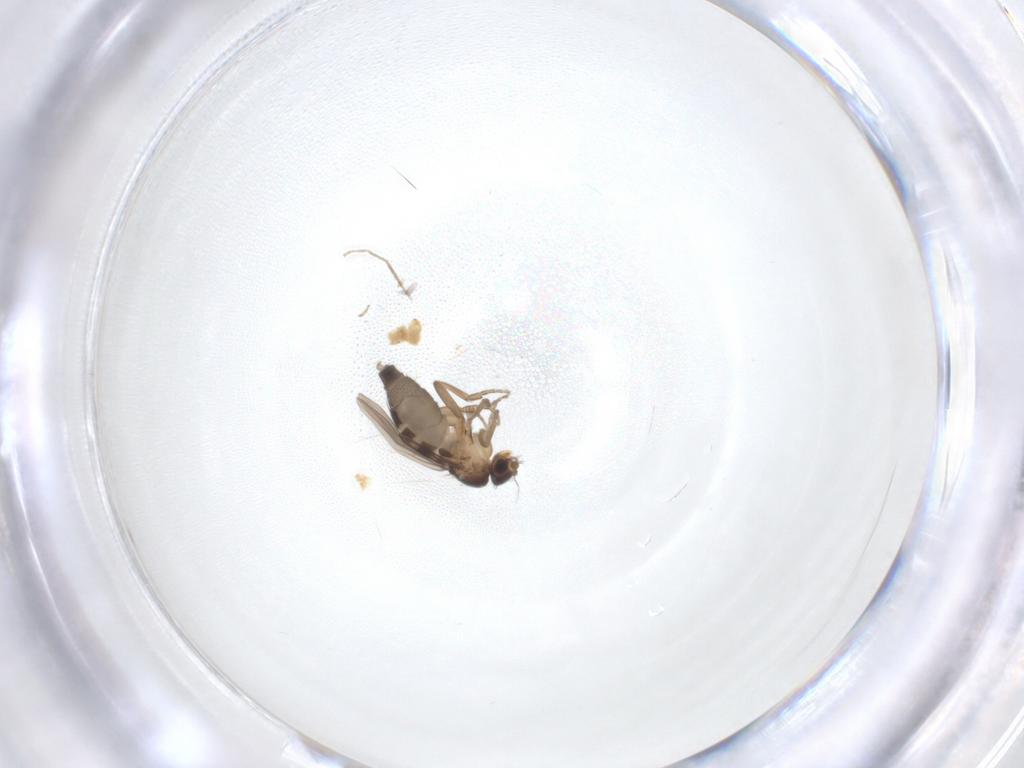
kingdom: Animalia
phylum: Arthropoda
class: Insecta
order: Diptera
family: Phoridae
